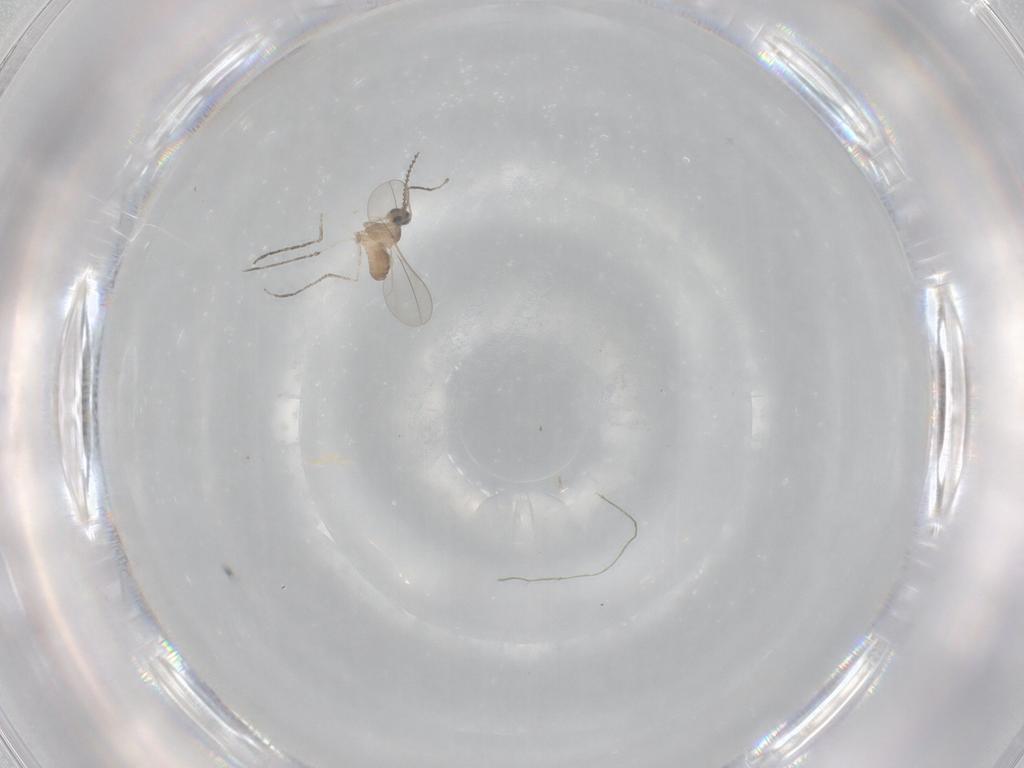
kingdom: Animalia
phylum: Arthropoda
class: Insecta
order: Diptera
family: Cecidomyiidae
